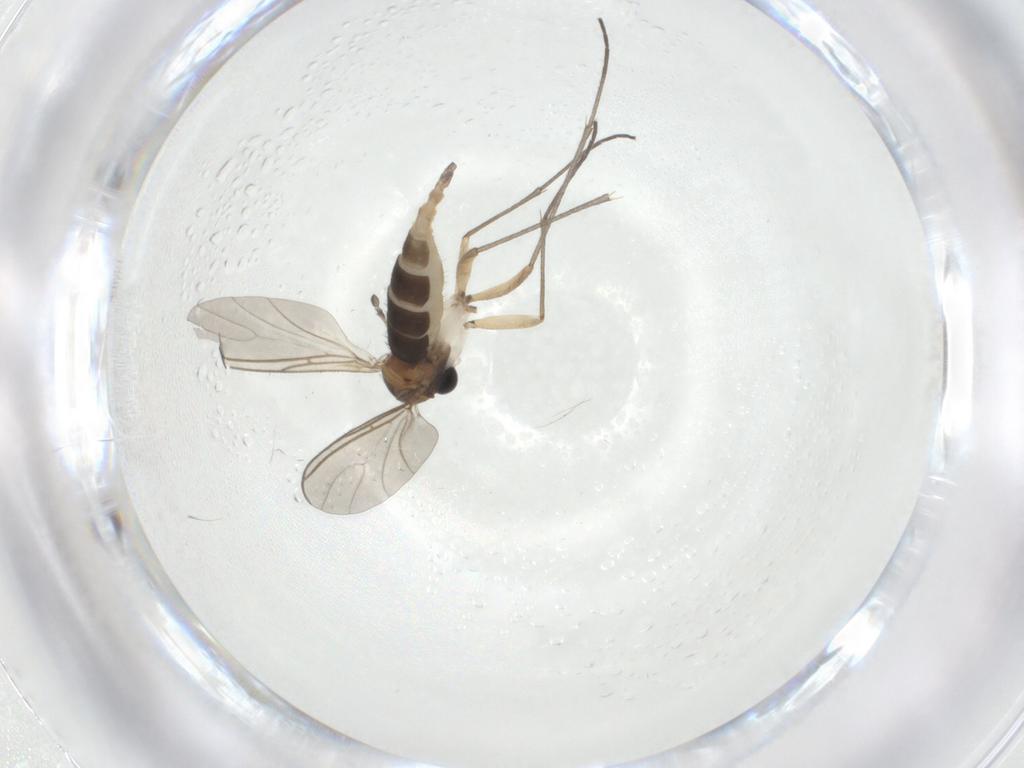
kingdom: Animalia
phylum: Arthropoda
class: Insecta
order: Diptera
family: Sciaridae
